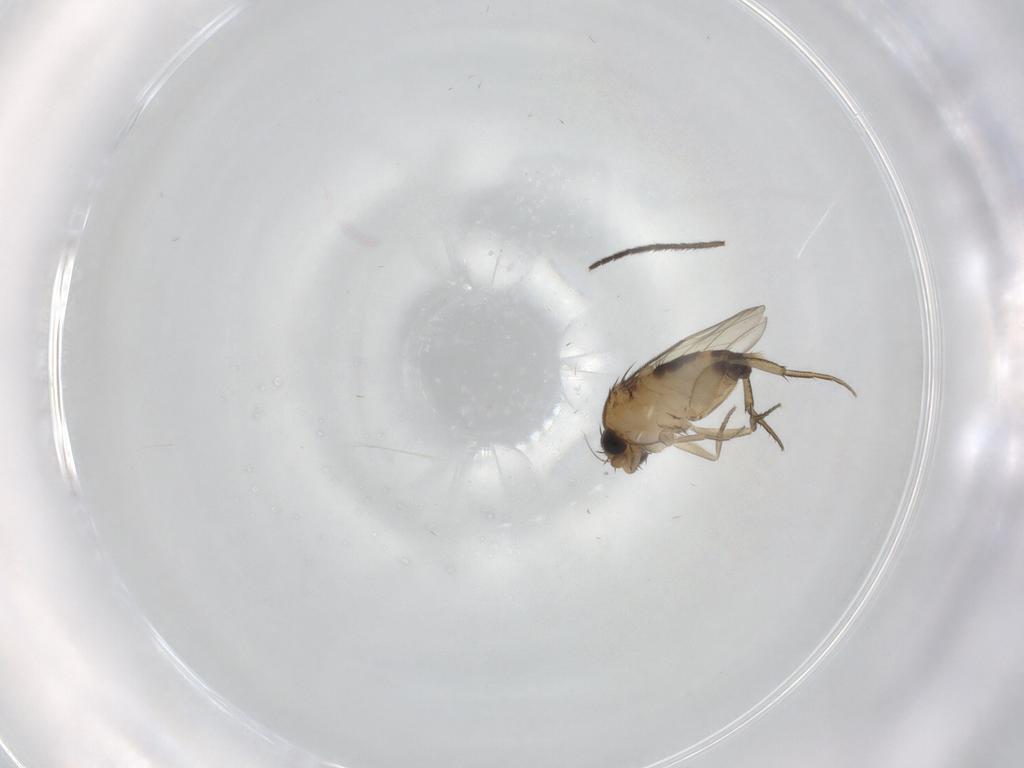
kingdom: Animalia
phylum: Arthropoda
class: Insecta
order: Diptera
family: Phoridae
